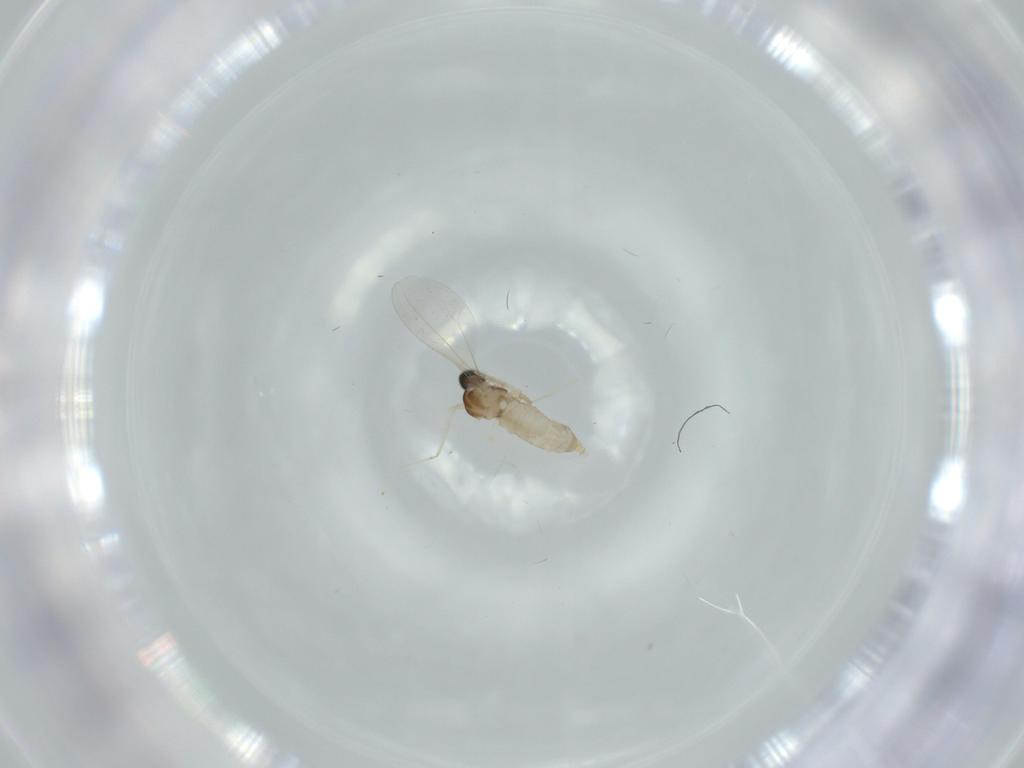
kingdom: Animalia
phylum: Arthropoda
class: Insecta
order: Diptera
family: Cecidomyiidae
